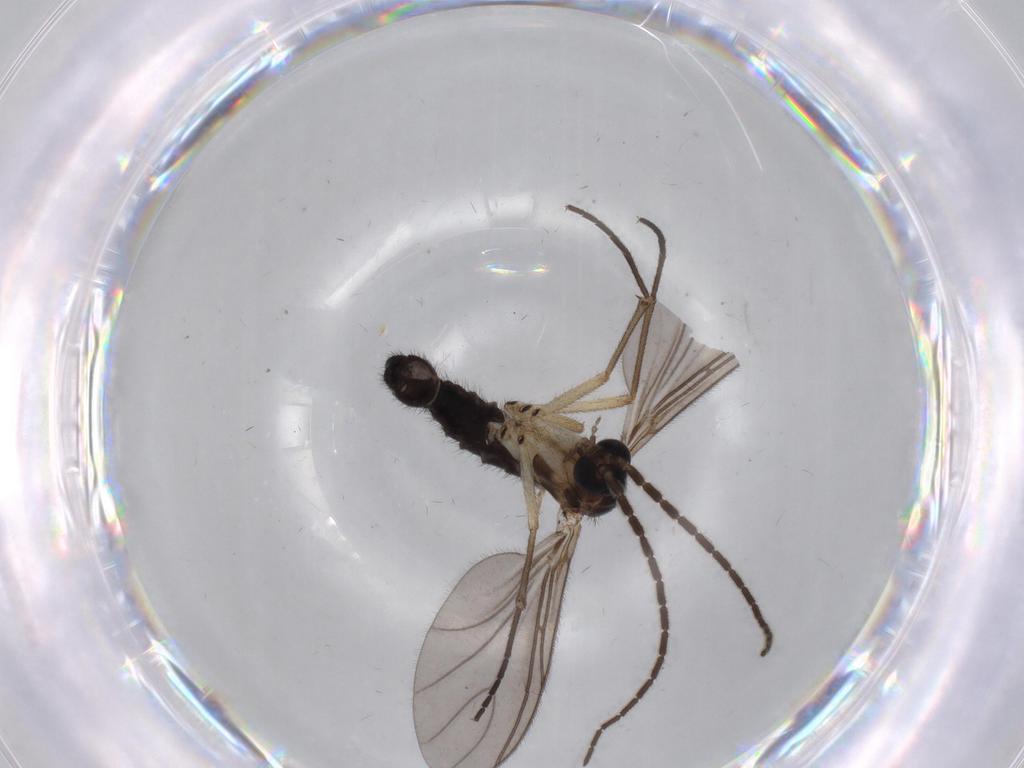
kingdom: Animalia
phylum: Arthropoda
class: Insecta
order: Diptera
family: Sciaridae
